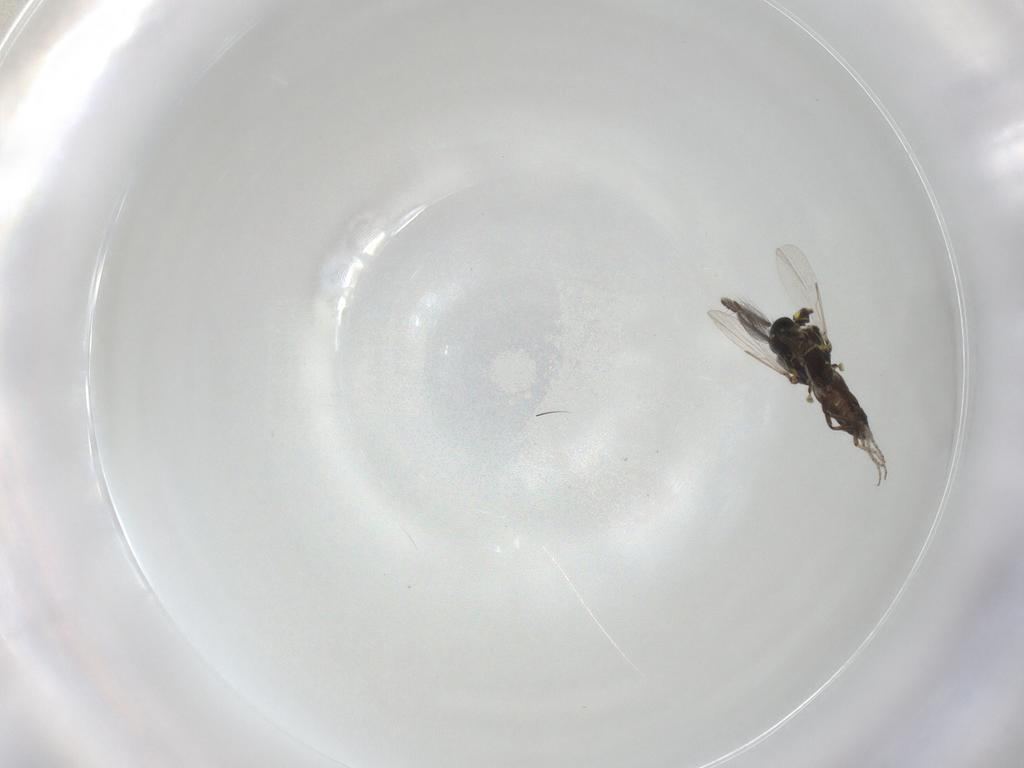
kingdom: Animalia
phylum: Arthropoda
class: Insecta
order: Diptera
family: Ceratopogonidae
